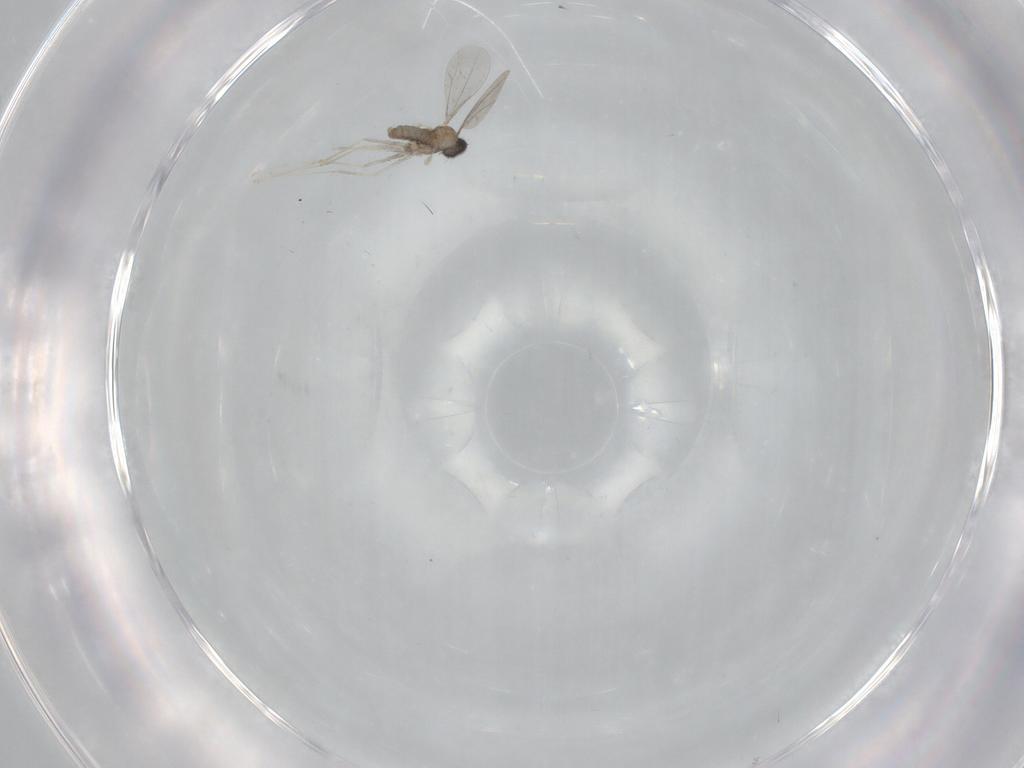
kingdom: Animalia
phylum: Arthropoda
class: Insecta
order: Diptera
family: Cecidomyiidae
